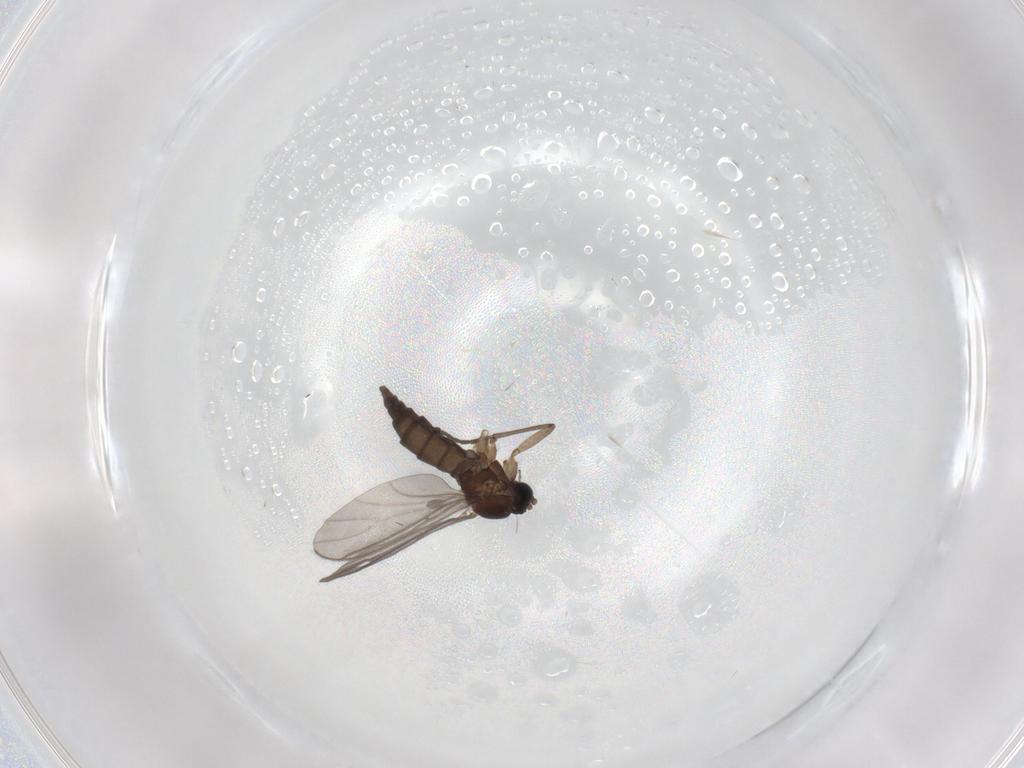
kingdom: Animalia
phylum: Arthropoda
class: Insecta
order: Diptera
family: Sciaridae
